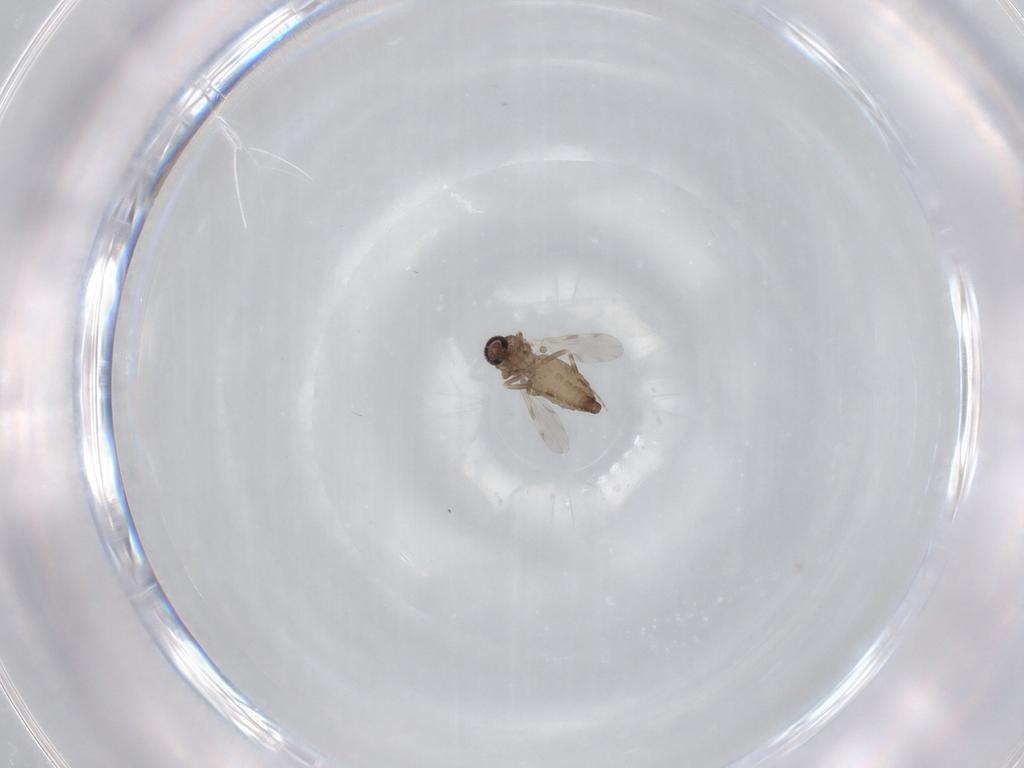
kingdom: Animalia
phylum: Arthropoda
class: Insecta
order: Diptera
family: Ceratopogonidae
